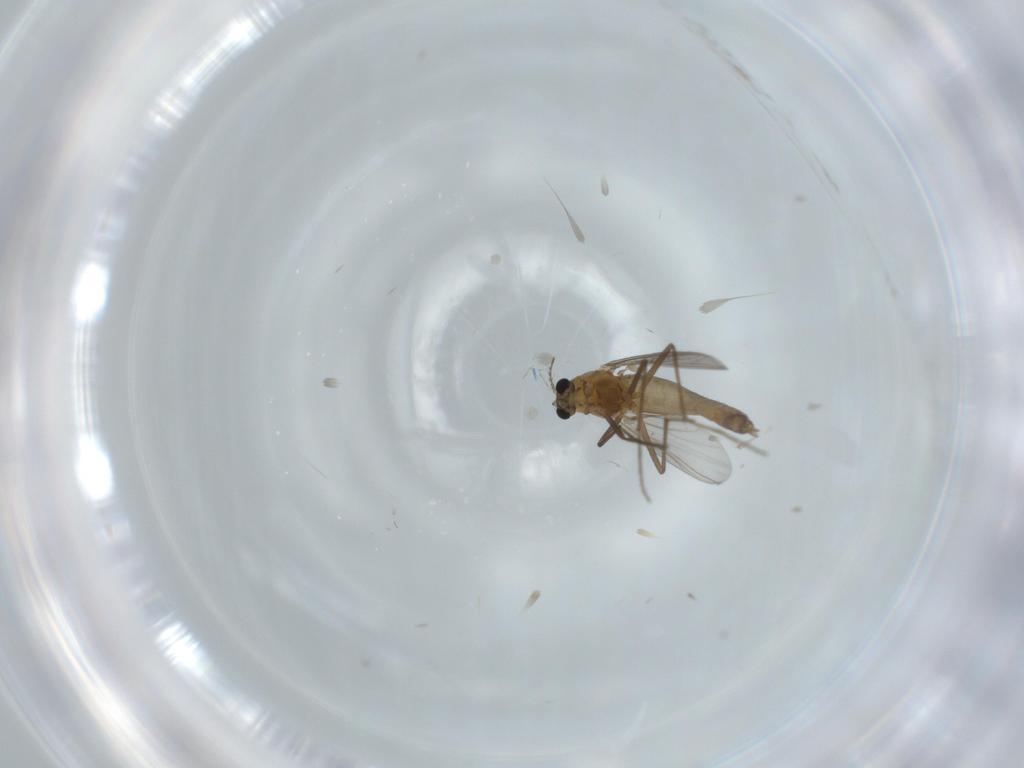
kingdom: Animalia
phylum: Arthropoda
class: Insecta
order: Diptera
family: Chironomidae
